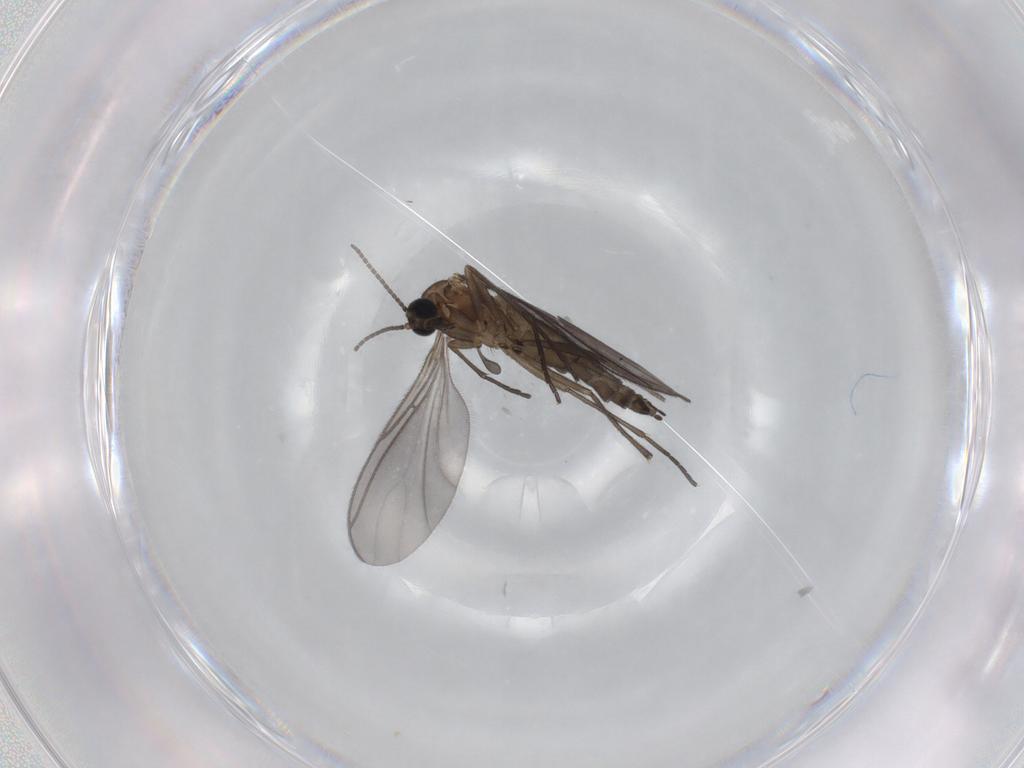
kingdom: Animalia
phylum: Arthropoda
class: Insecta
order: Diptera
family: Sciaridae
